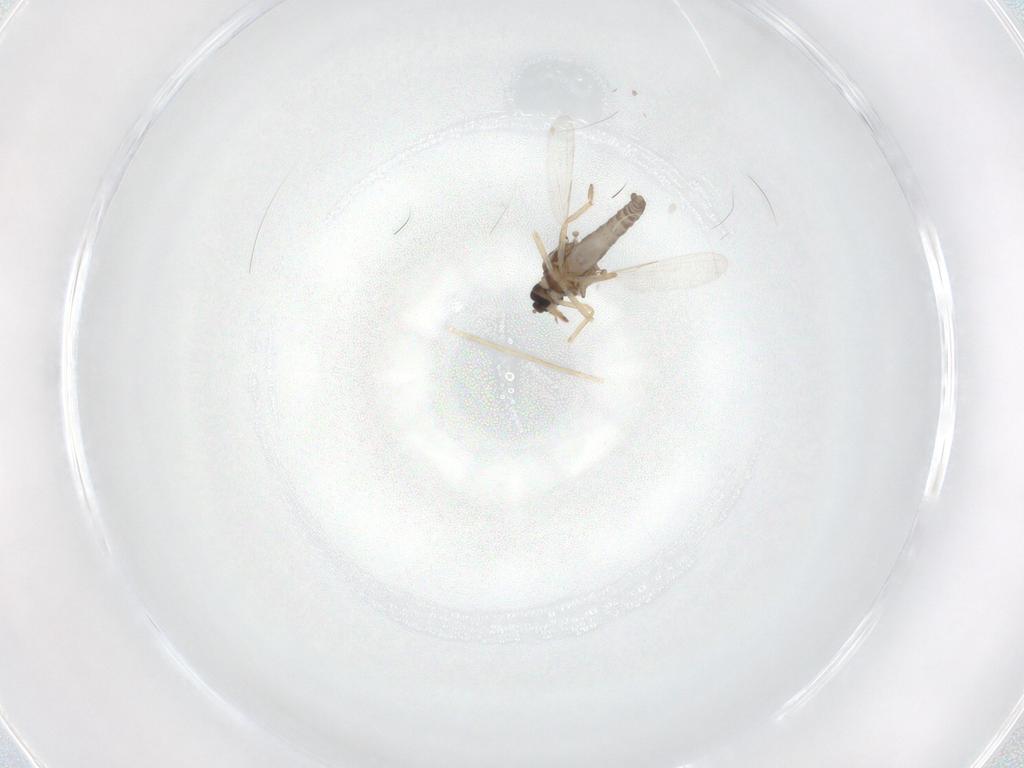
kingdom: Animalia
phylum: Arthropoda
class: Insecta
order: Diptera
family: Ceratopogonidae
